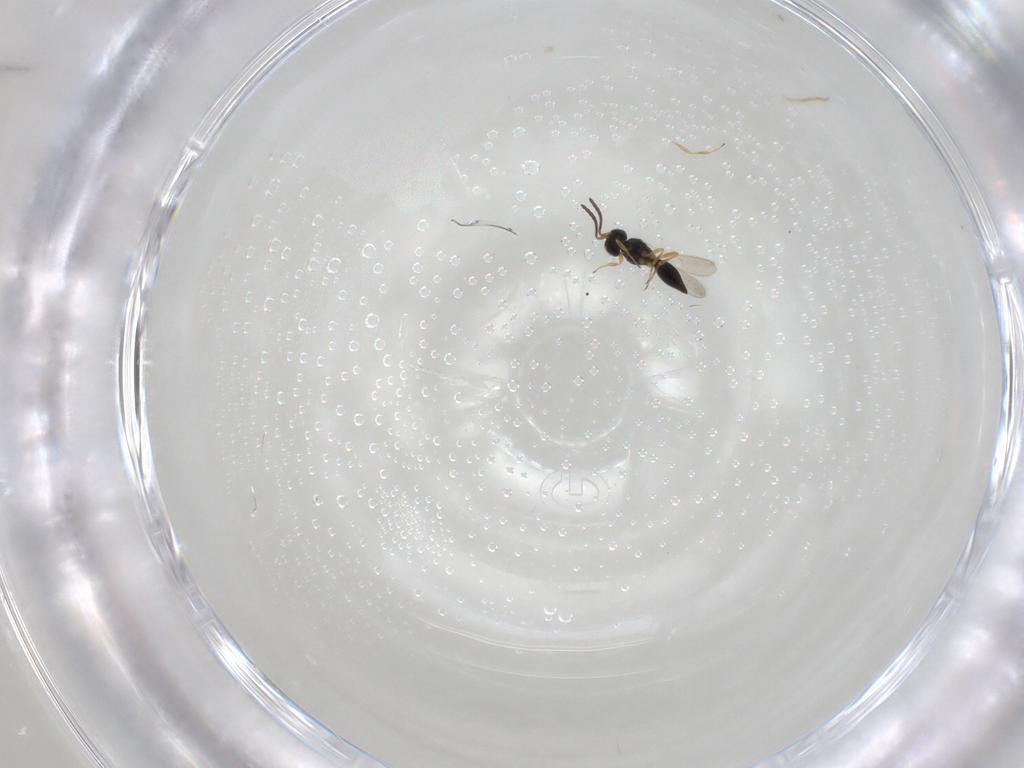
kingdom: Animalia
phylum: Arthropoda
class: Insecta
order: Hymenoptera
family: Scelionidae
